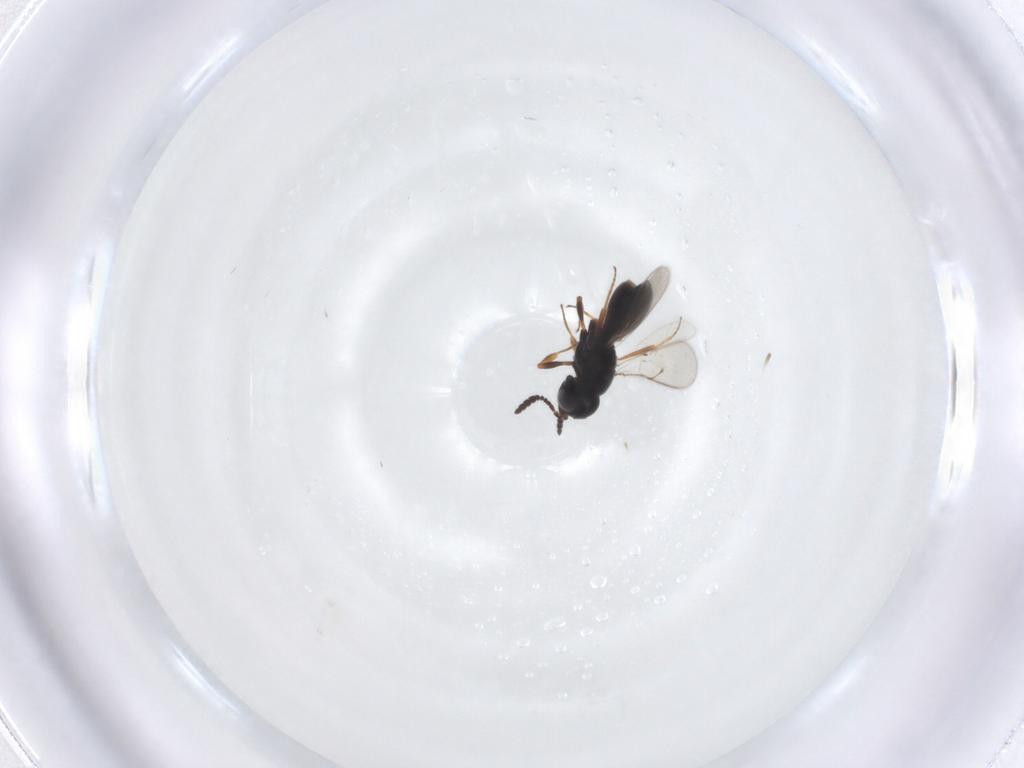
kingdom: Animalia
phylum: Arthropoda
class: Insecta
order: Hymenoptera
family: Scelionidae
